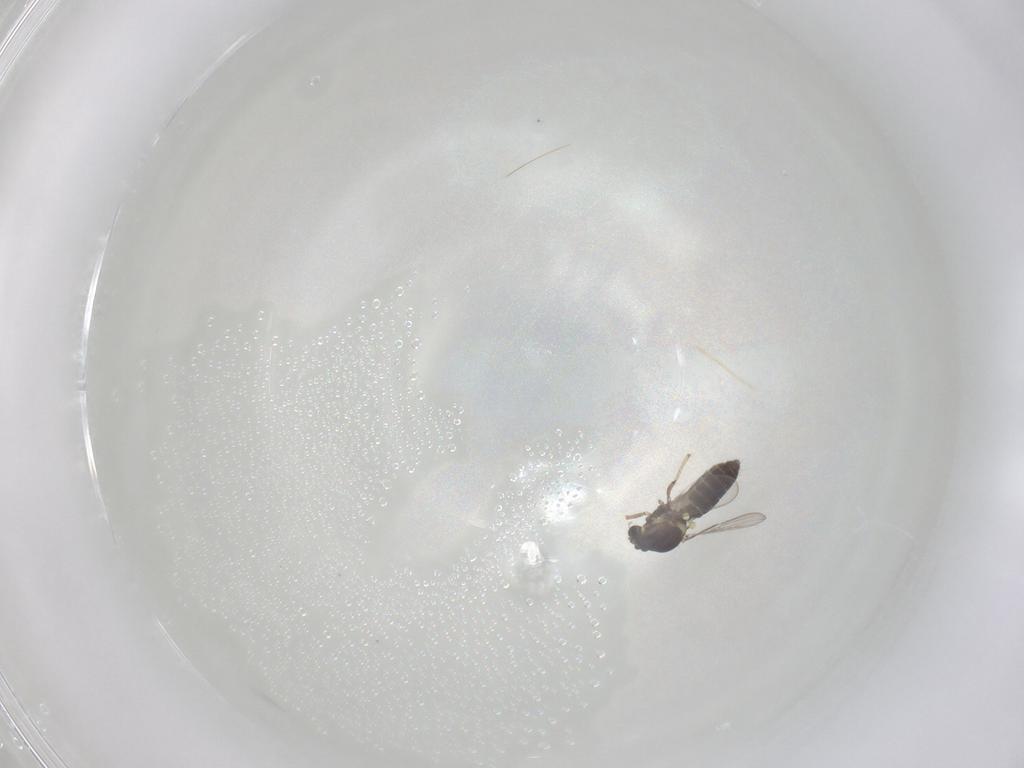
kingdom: Animalia
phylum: Arthropoda
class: Insecta
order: Diptera
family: Ceratopogonidae
